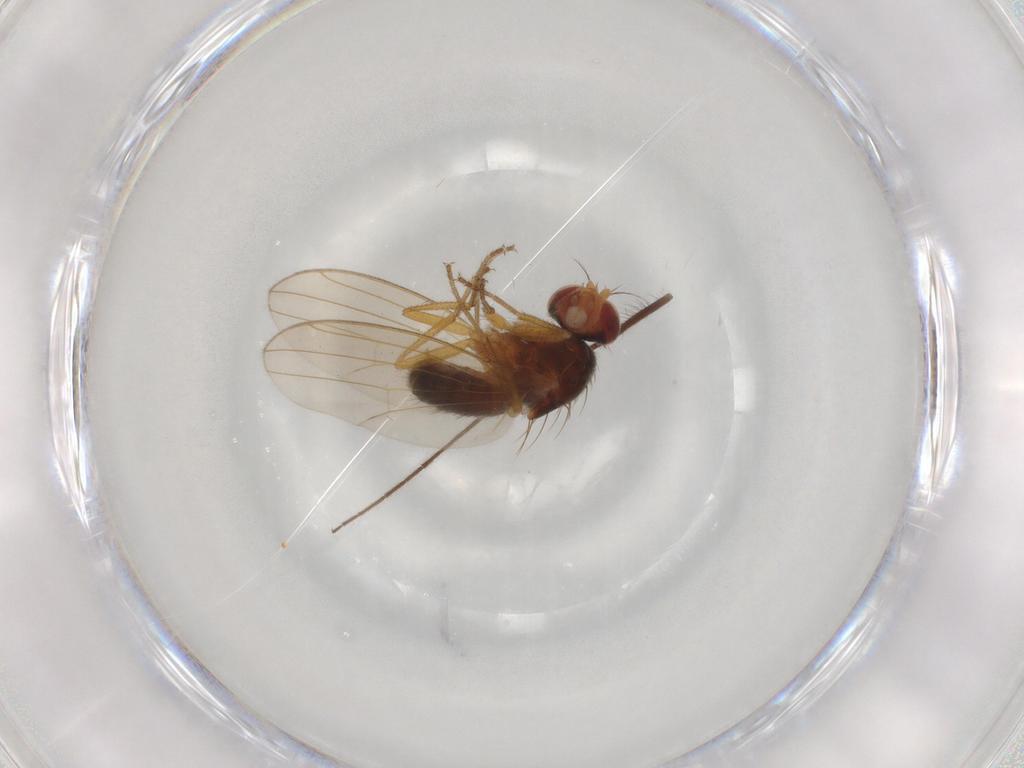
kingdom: Animalia
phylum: Arthropoda
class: Insecta
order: Diptera
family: Drosophilidae
